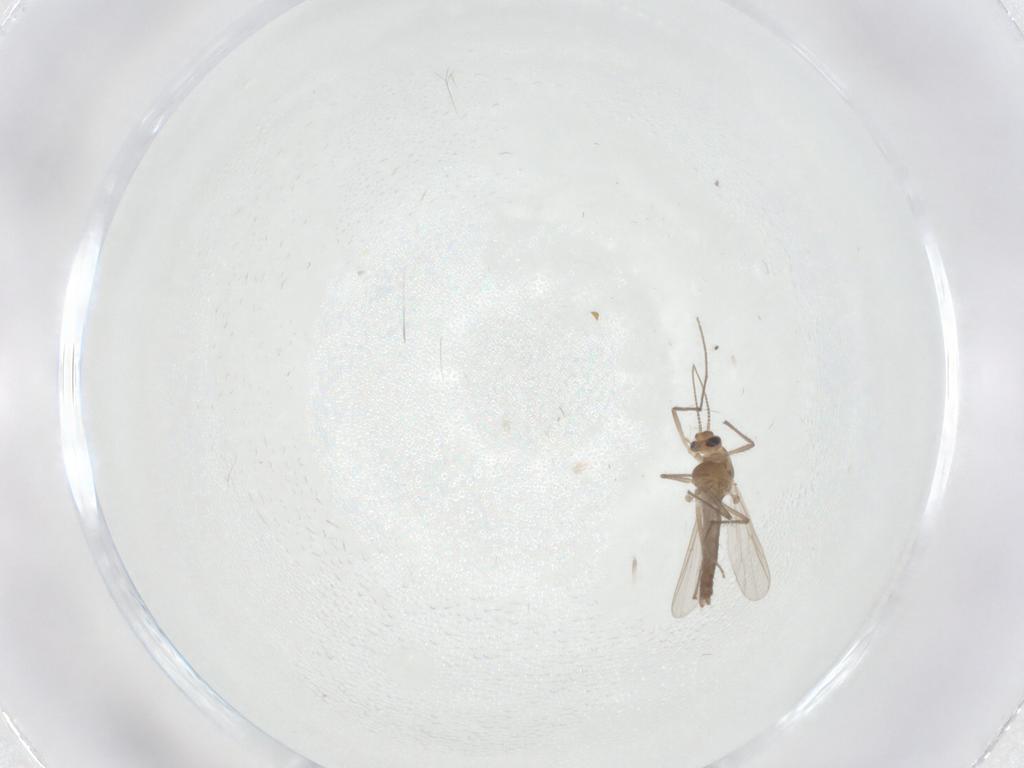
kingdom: Animalia
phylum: Arthropoda
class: Insecta
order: Diptera
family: Chironomidae
